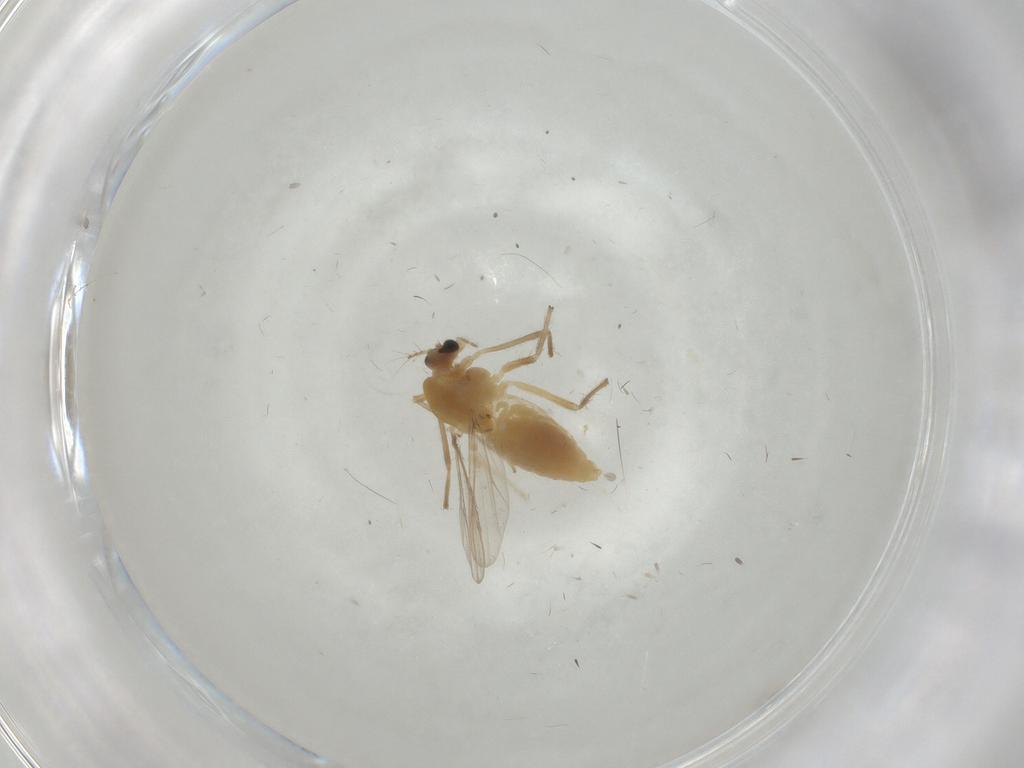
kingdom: Animalia
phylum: Arthropoda
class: Insecta
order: Diptera
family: Chironomidae
